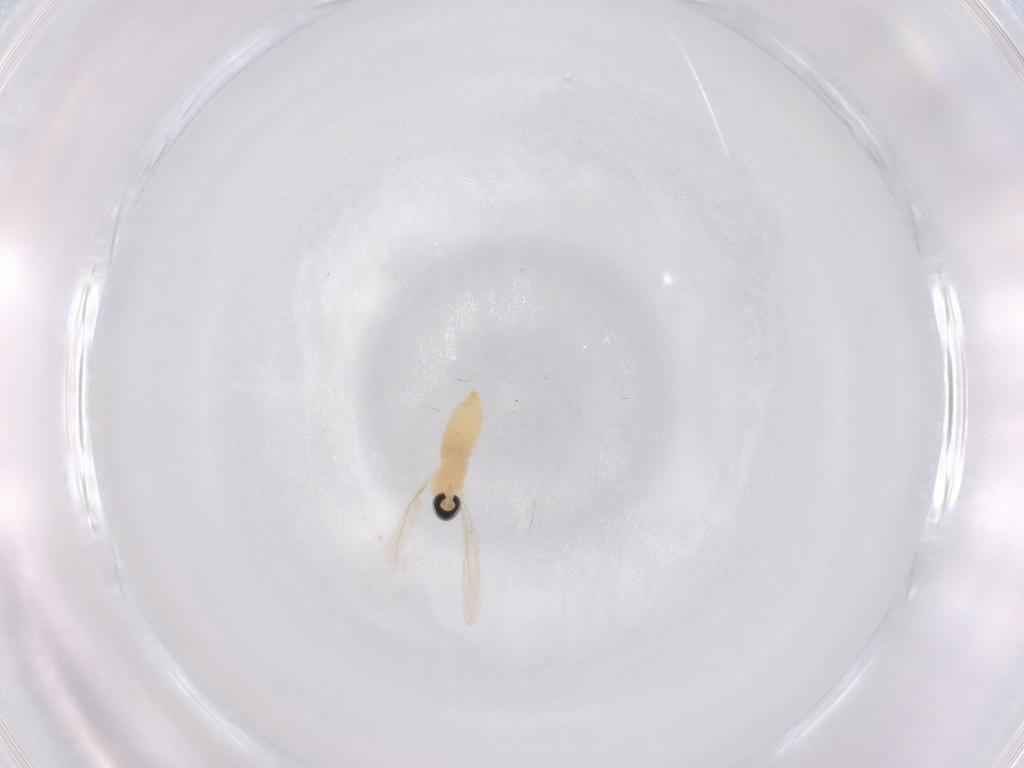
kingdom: Animalia
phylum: Arthropoda
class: Insecta
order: Diptera
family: Cecidomyiidae
